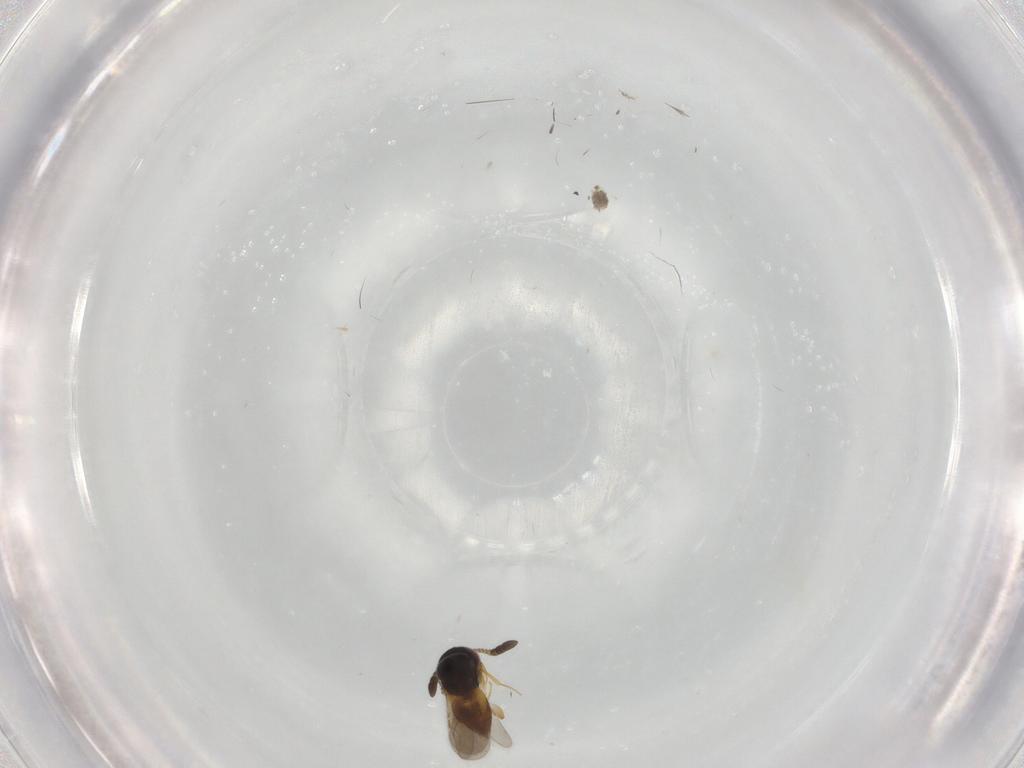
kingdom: Animalia
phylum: Arthropoda
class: Insecta
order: Hymenoptera
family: Ceraphronidae
